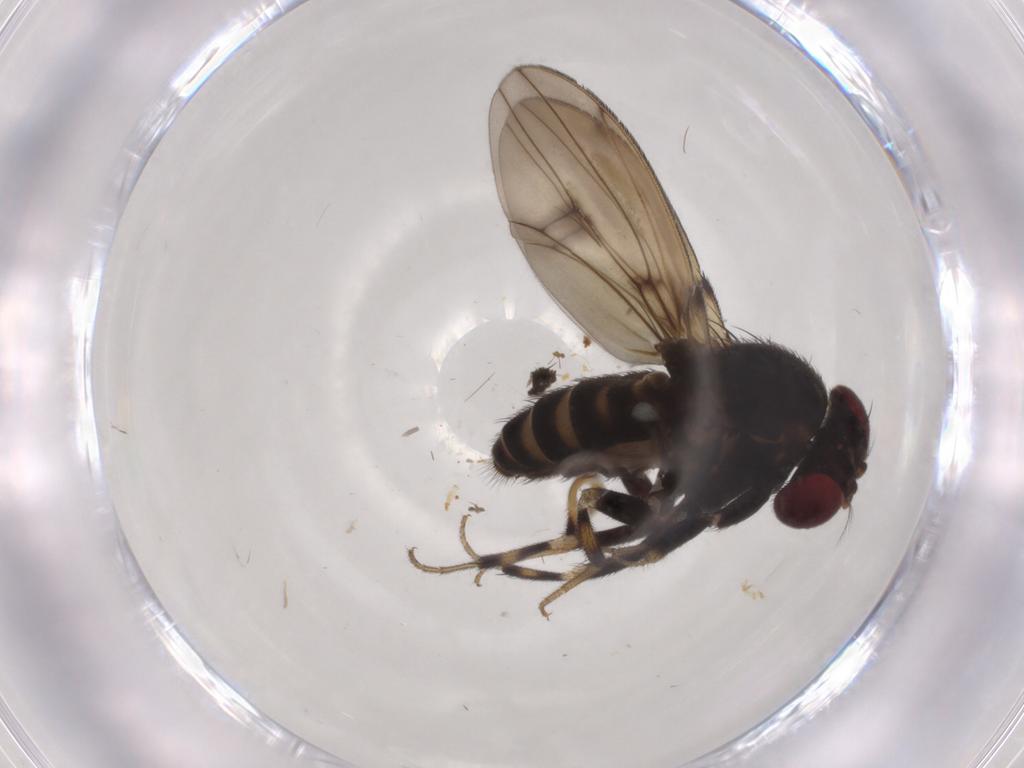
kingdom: Animalia
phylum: Arthropoda
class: Insecta
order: Diptera
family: Drosophilidae
